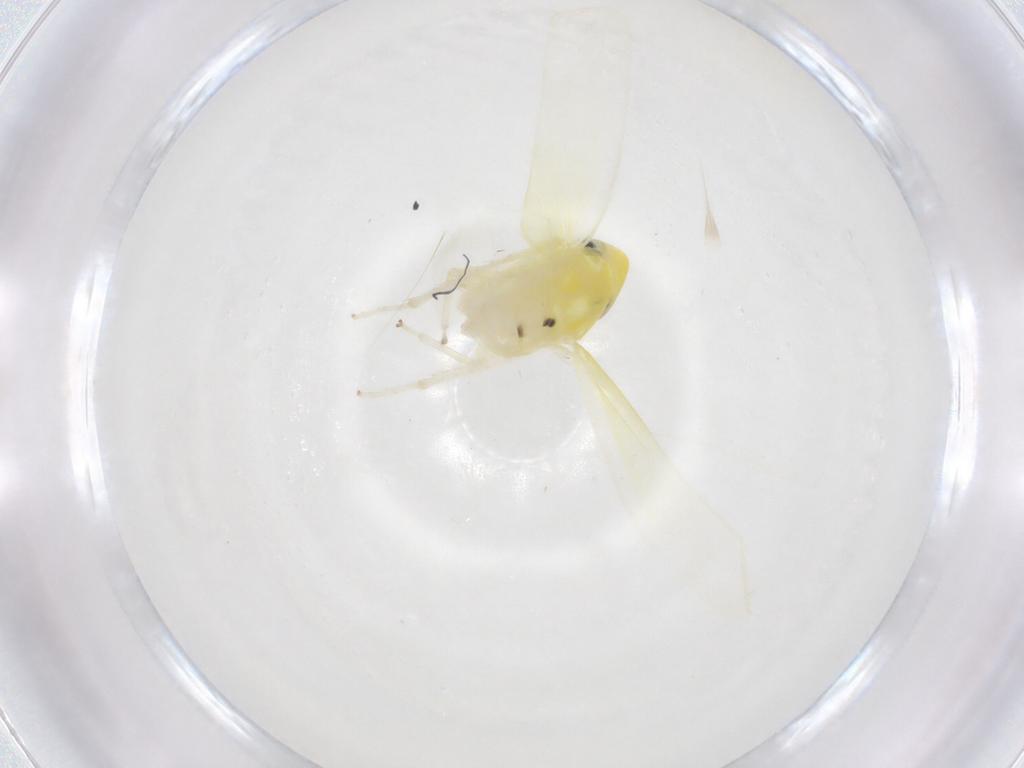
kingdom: Animalia
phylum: Arthropoda
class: Insecta
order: Hemiptera
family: Cicadellidae
